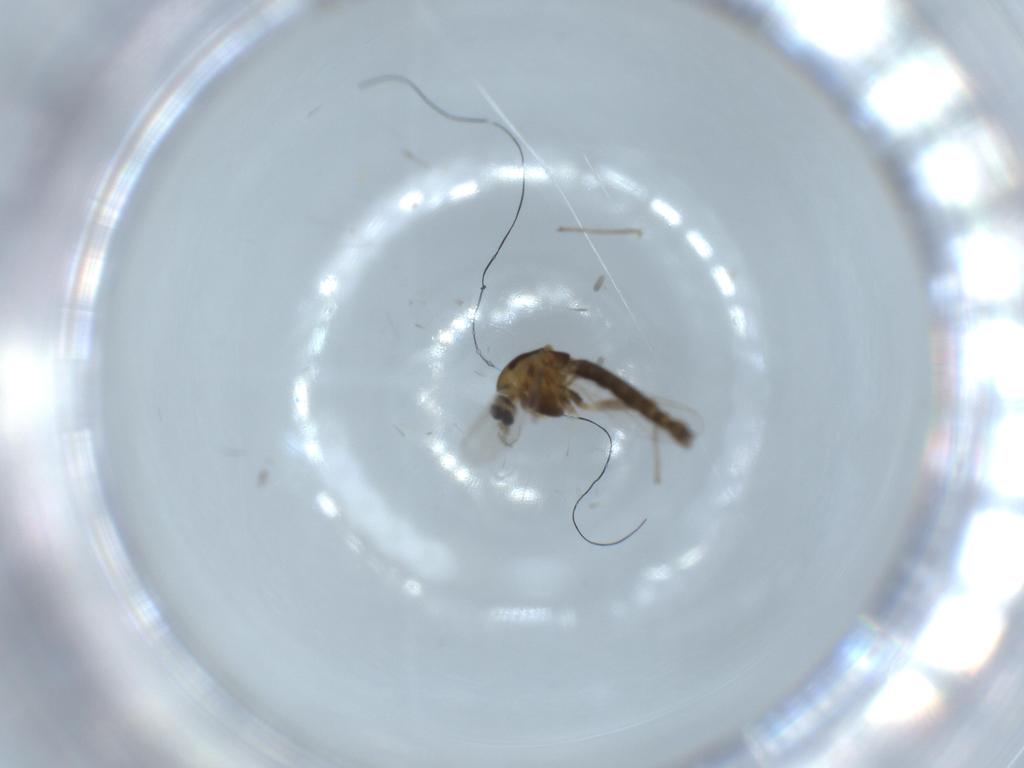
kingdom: Animalia
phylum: Arthropoda
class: Insecta
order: Diptera
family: Chironomidae
